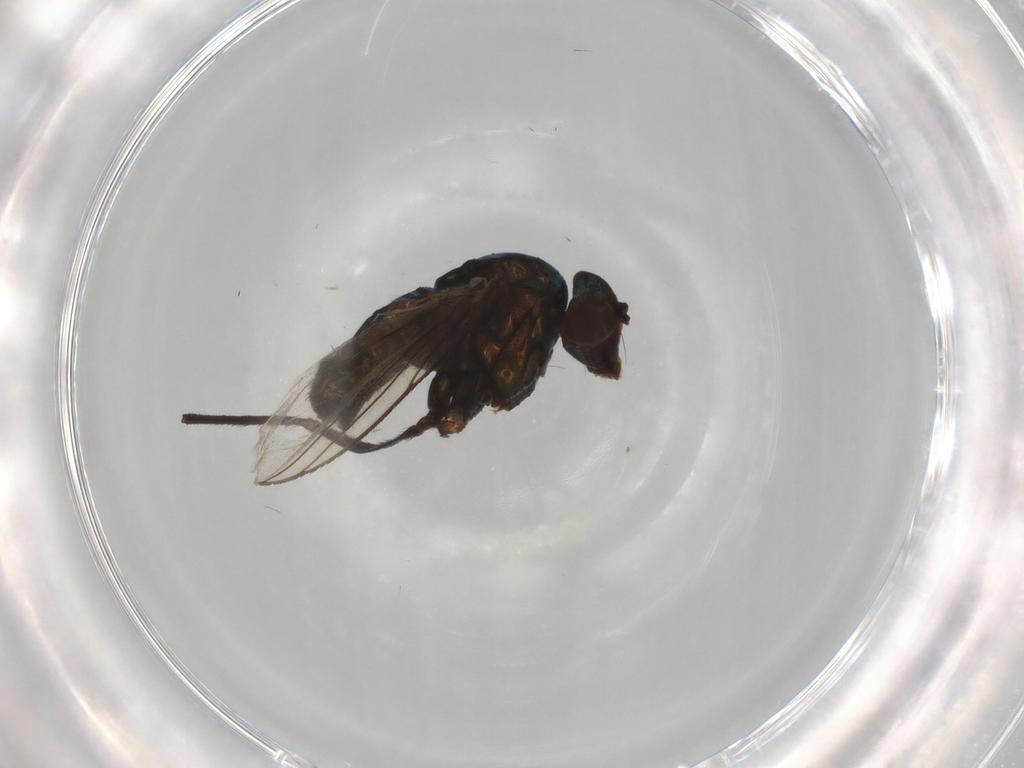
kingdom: Animalia
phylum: Arthropoda
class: Insecta
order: Diptera
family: Dolichopodidae
